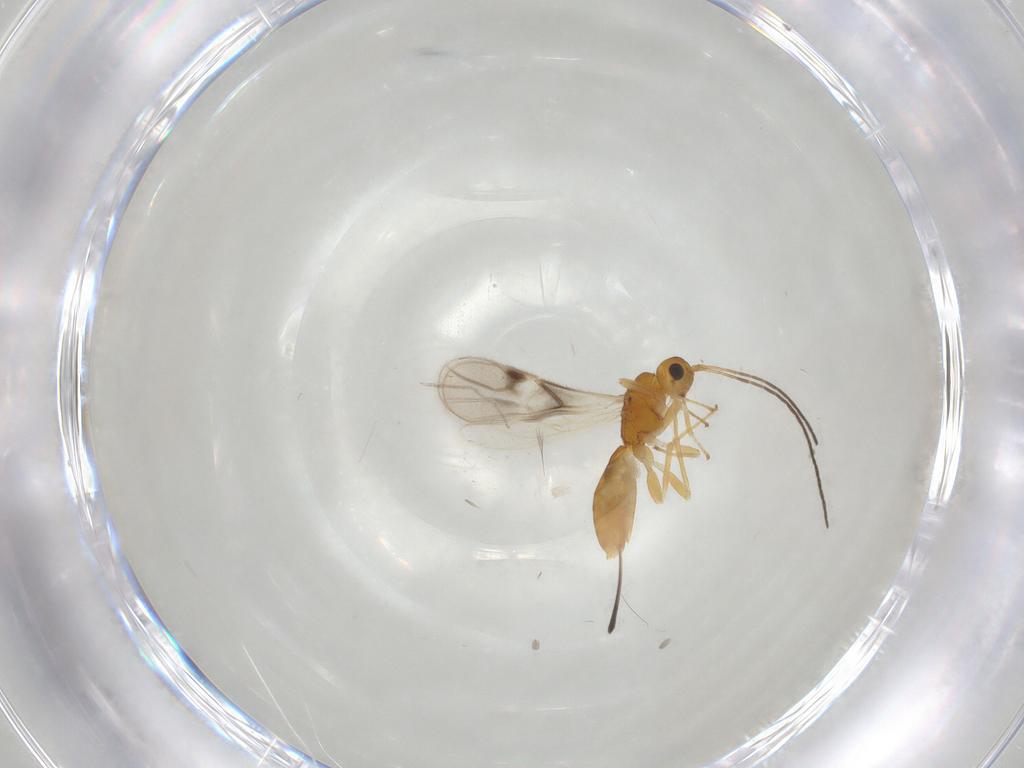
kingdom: Animalia
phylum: Arthropoda
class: Insecta
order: Hymenoptera
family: Braconidae
